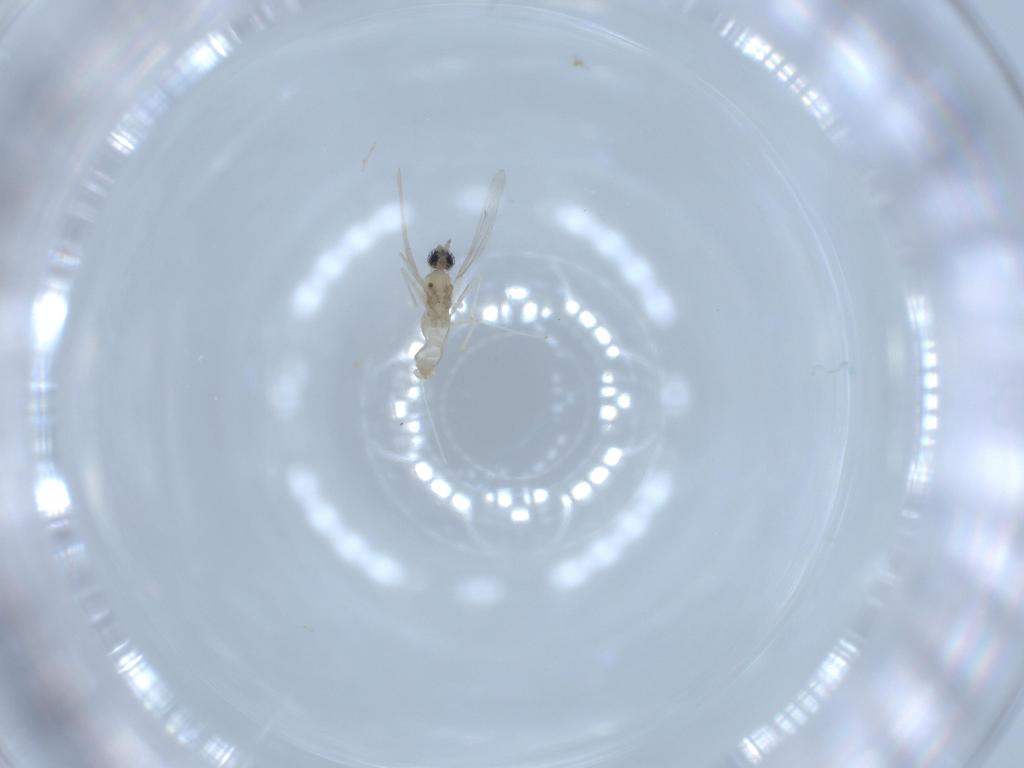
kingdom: Animalia
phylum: Arthropoda
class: Insecta
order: Diptera
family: Cecidomyiidae
